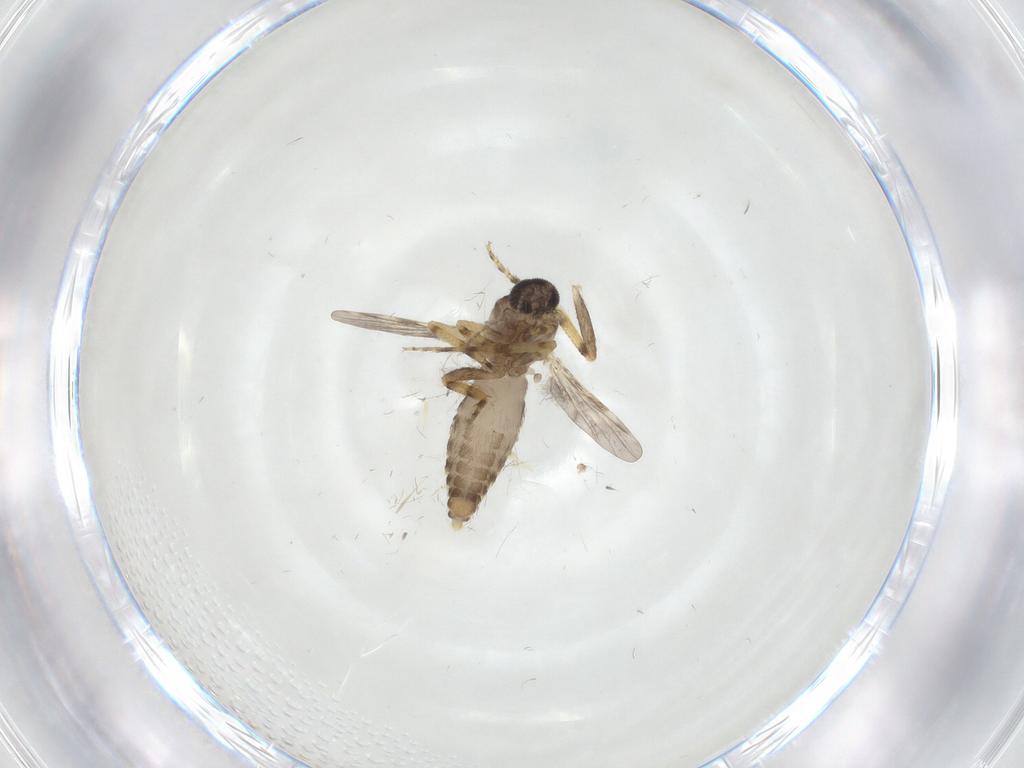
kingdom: Animalia
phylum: Arthropoda
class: Insecta
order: Diptera
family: Ceratopogonidae
